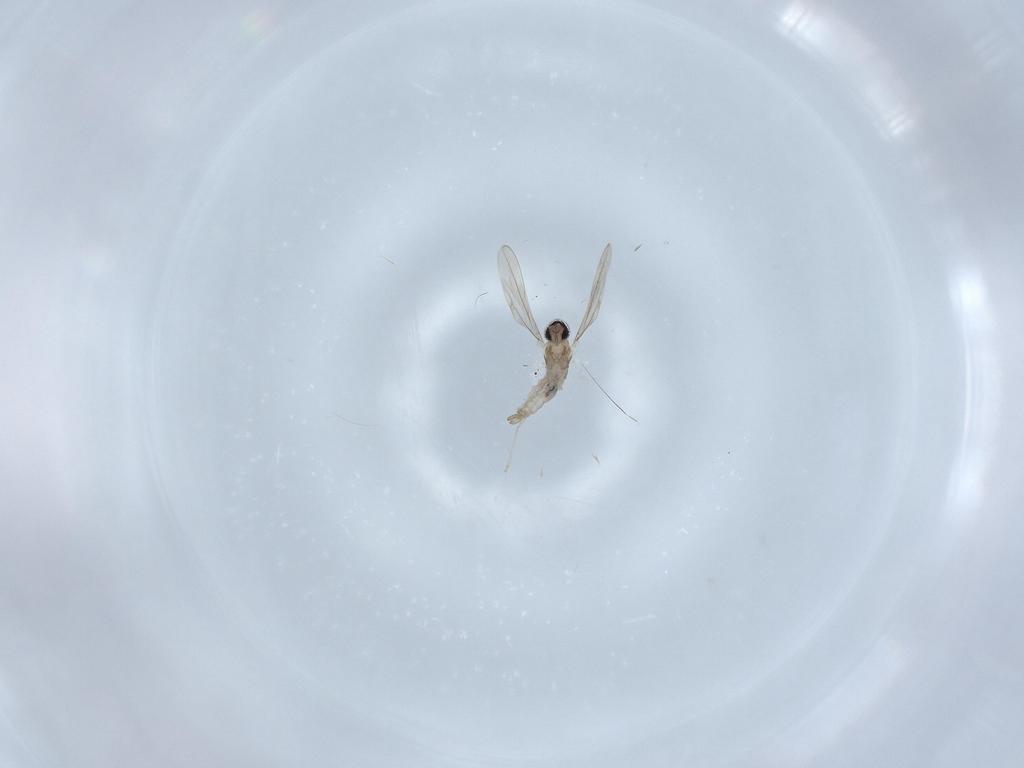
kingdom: Animalia
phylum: Arthropoda
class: Insecta
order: Diptera
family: Cecidomyiidae
